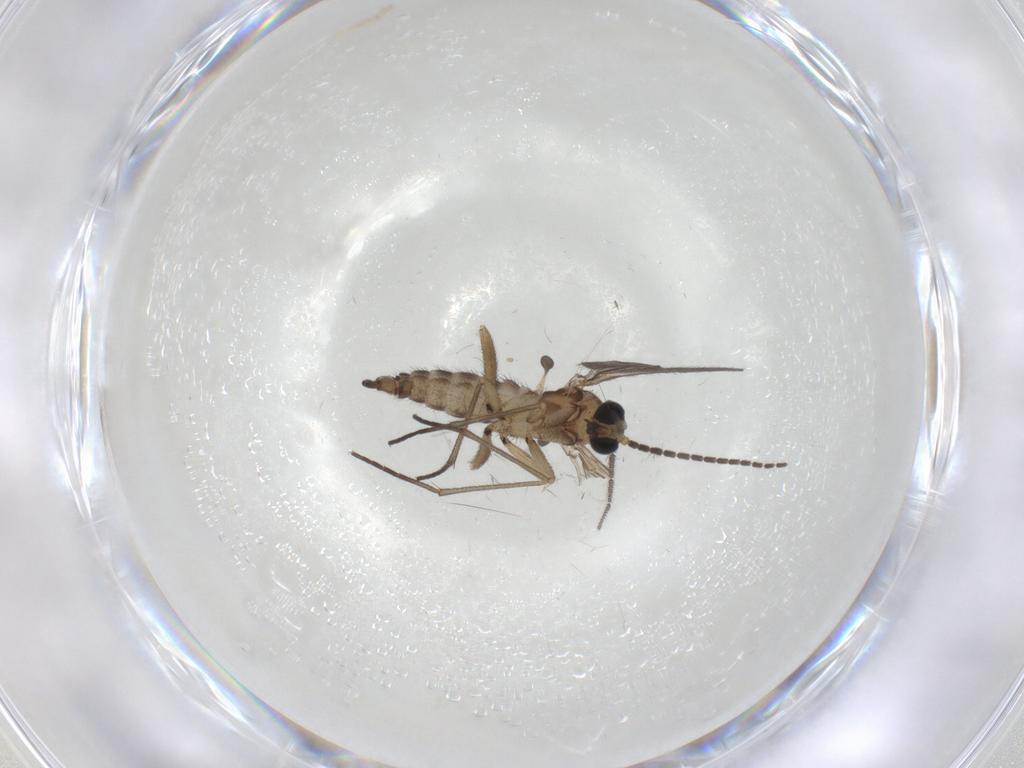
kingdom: Animalia
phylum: Arthropoda
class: Insecta
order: Diptera
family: Sciaridae
